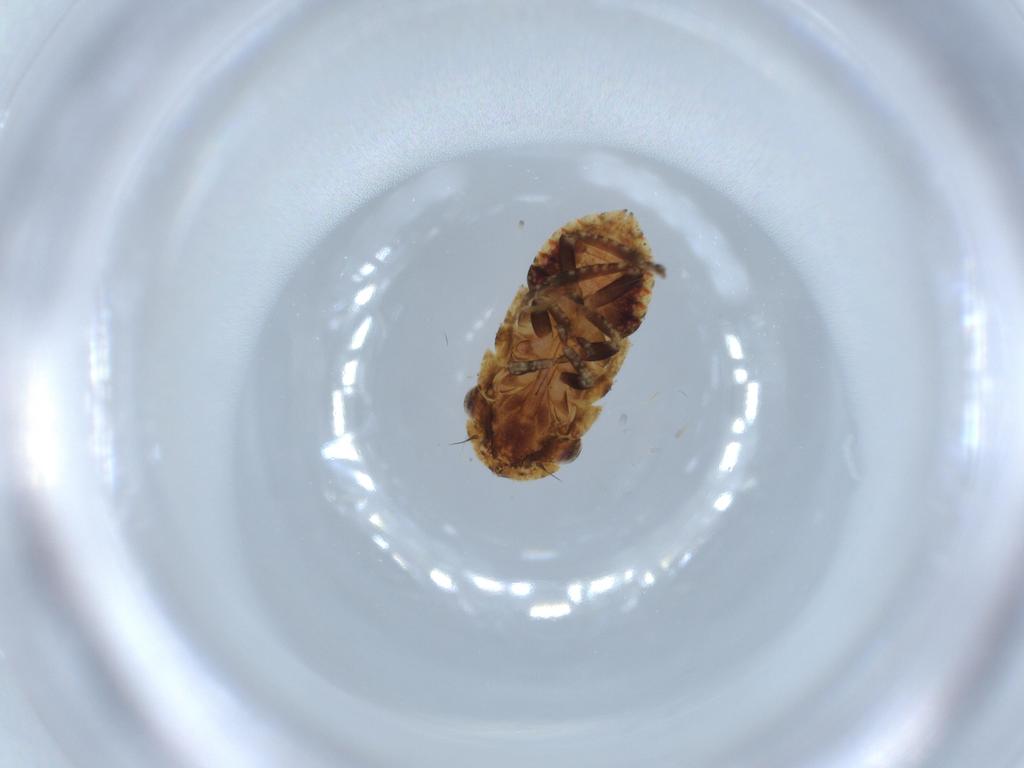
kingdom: Animalia
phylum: Arthropoda
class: Insecta
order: Hemiptera
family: Cicadellidae
